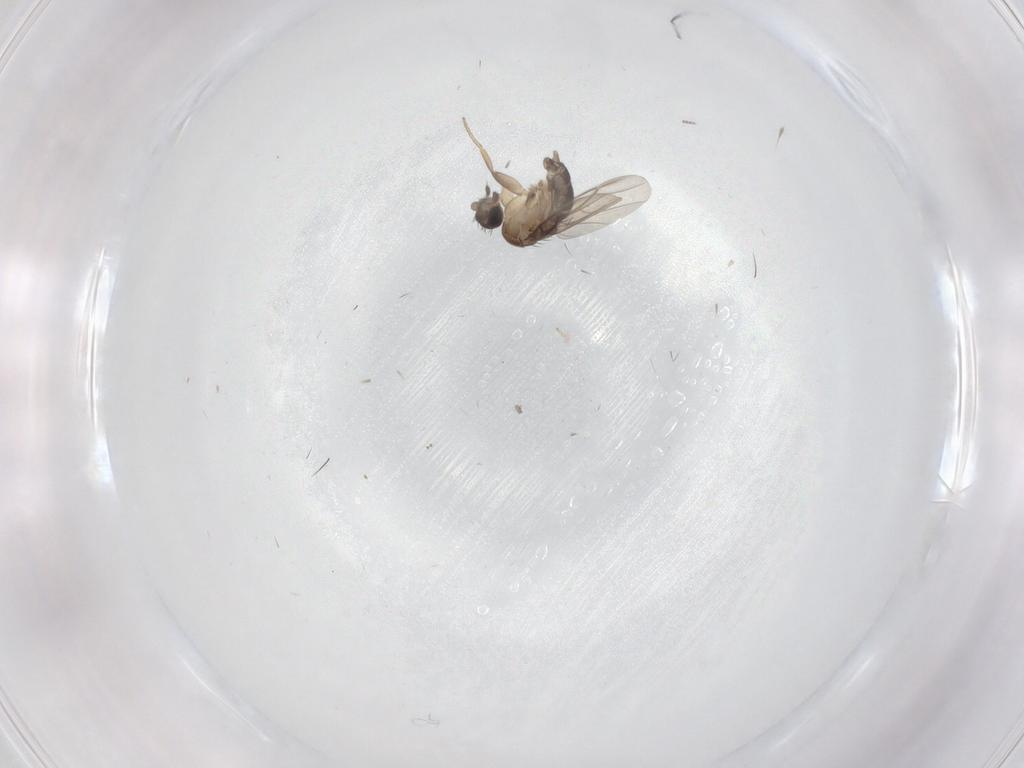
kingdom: Animalia
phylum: Arthropoda
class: Insecta
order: Diptera
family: Phoridae
